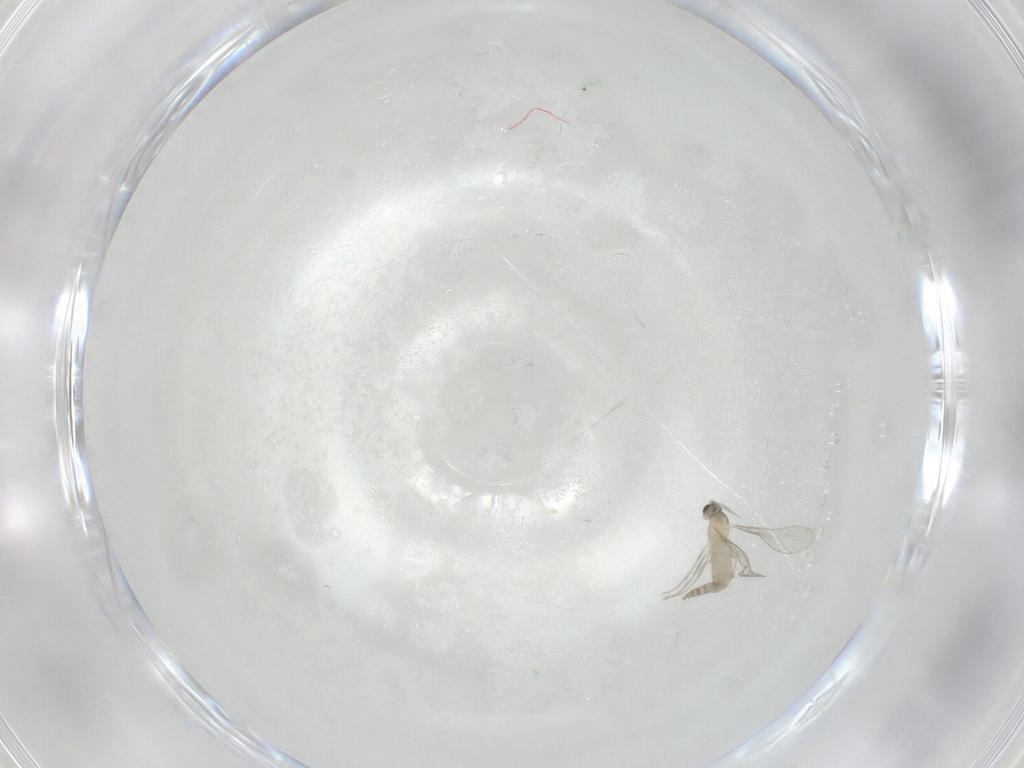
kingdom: Animalia
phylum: Arthropoda
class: Insecta
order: Diptera
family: Cecidomyiidae
